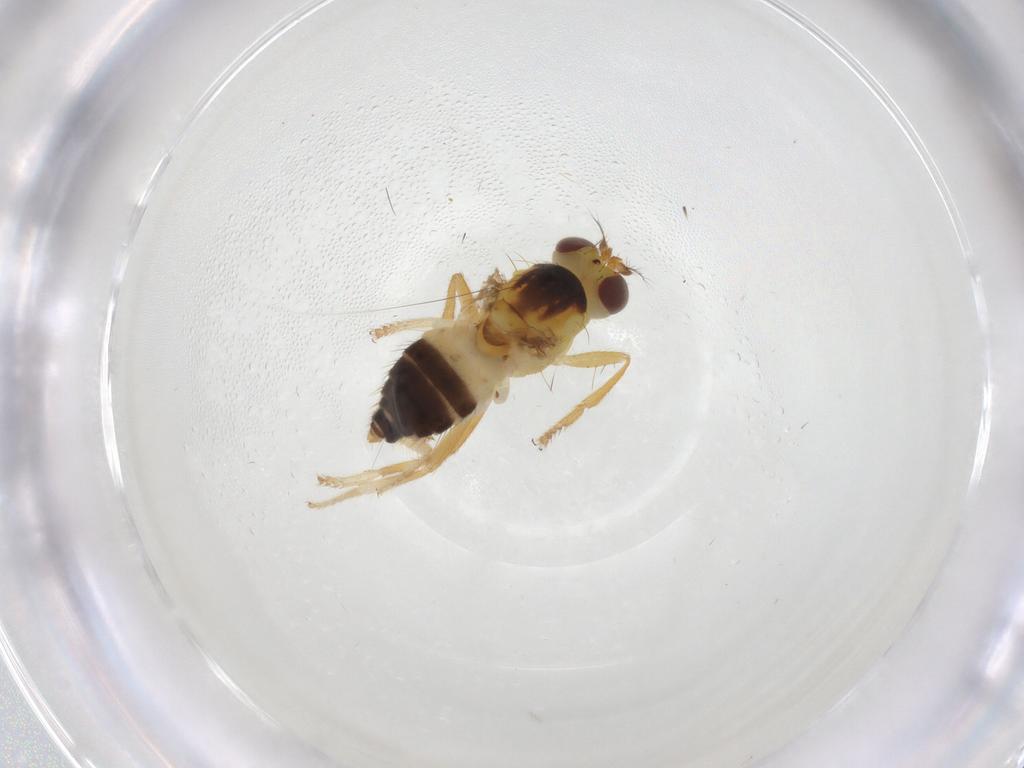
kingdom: Animalia
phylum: Arthropoda
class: Insecta
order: Diptera
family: Periscelididae
